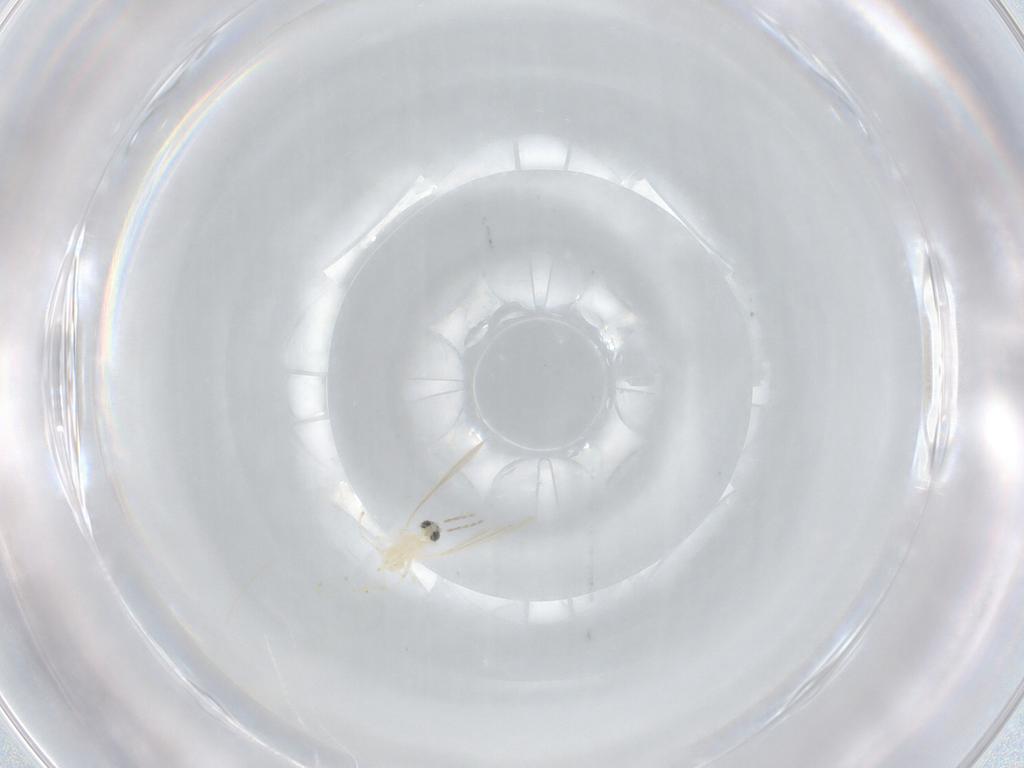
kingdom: Animalia
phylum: Arthropoda
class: Insecta
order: Diptera
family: Cecidomyiidae
